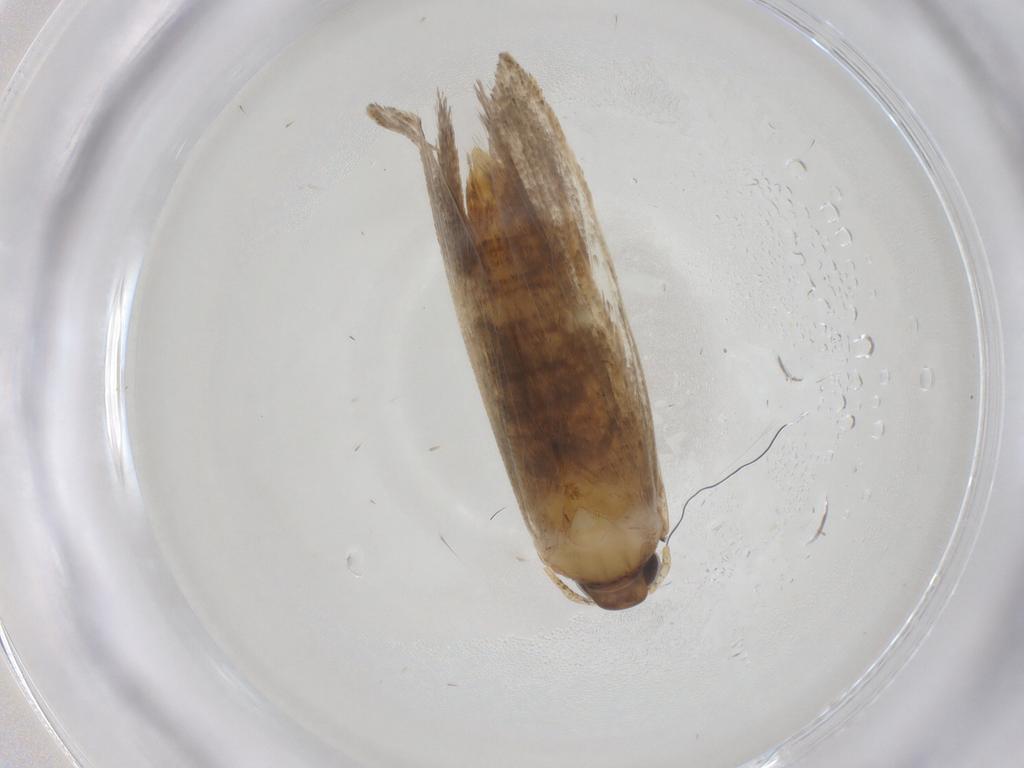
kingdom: Animalia
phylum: Arthropoda
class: Insecta
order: Lepidoptera
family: Oecophoridae
